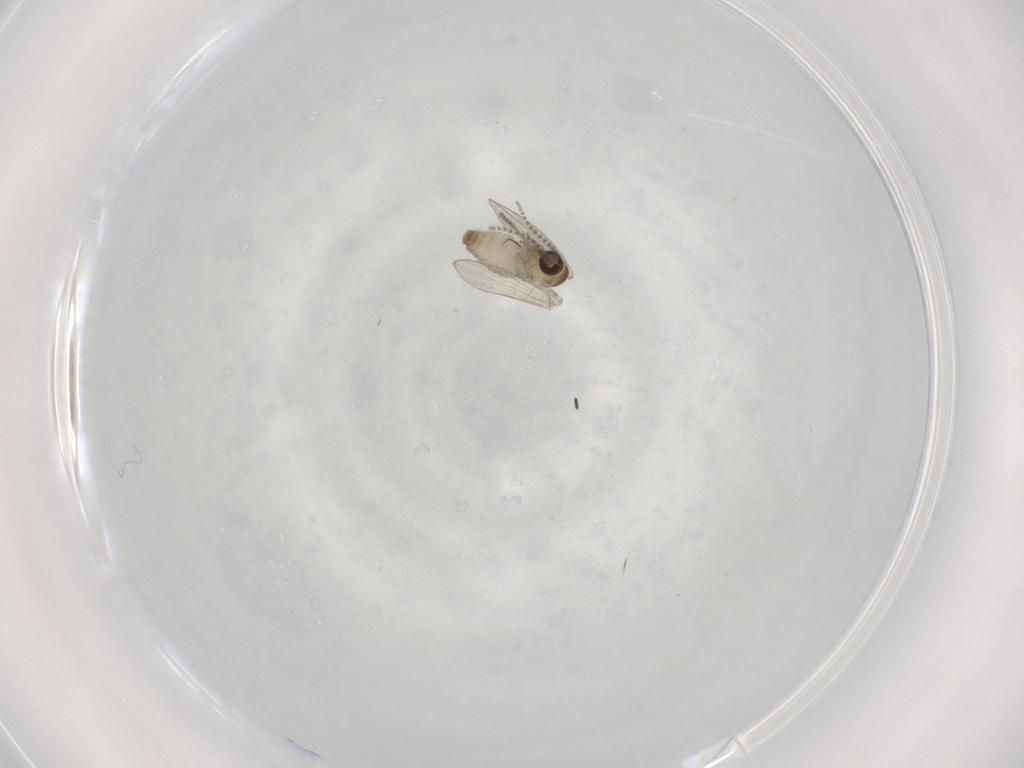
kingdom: Animalia
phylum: Arthropoda
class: Insecta
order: Diptera
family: Psychodidae
